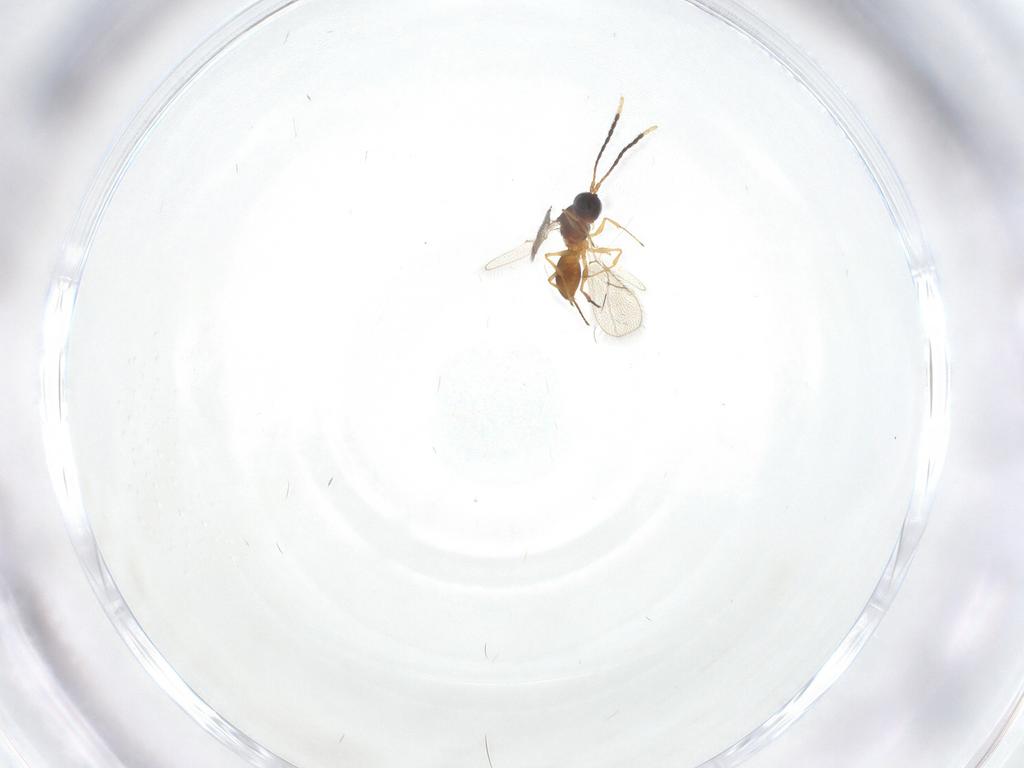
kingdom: Animalia
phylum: Arthropoda
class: Insecta
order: Hymenoptera
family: Figitidae
